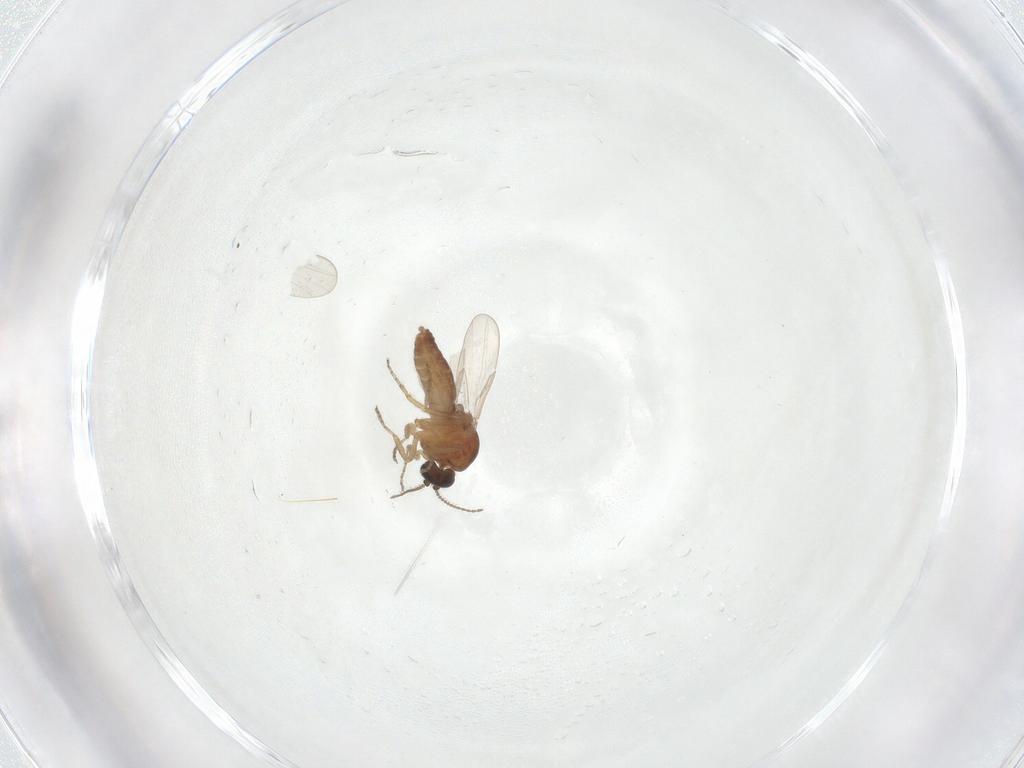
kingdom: Animalia
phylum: Arthropoda
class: Insecta
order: Diptera
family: Ceratopogonidae
